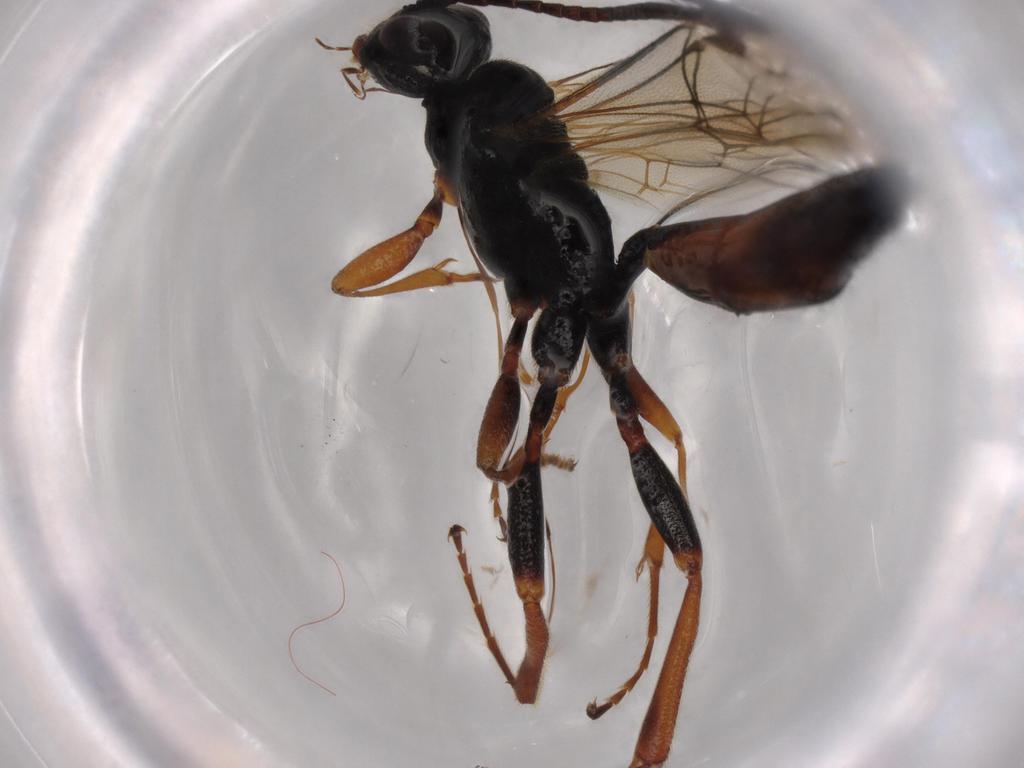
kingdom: Animalia
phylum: Arthropoda
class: Insecta
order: Hymenoptera
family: Ichneumonidae
